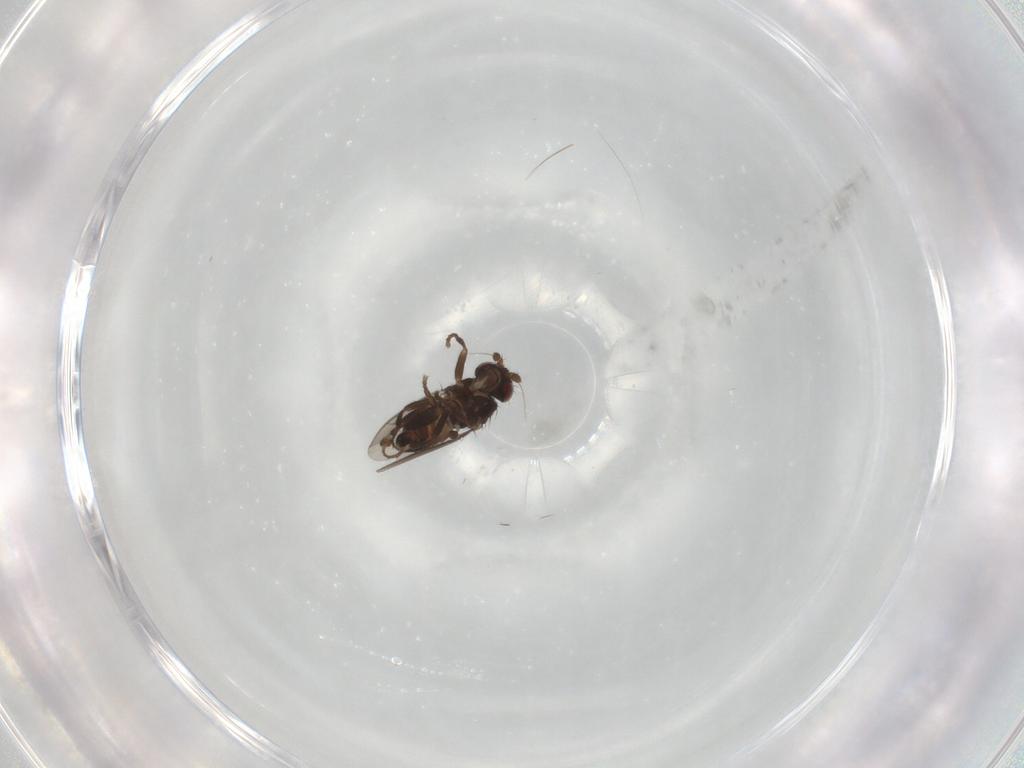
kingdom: Animalia
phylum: Arthropoda
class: Insecta
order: Diptera
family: Sphaeroceridae
